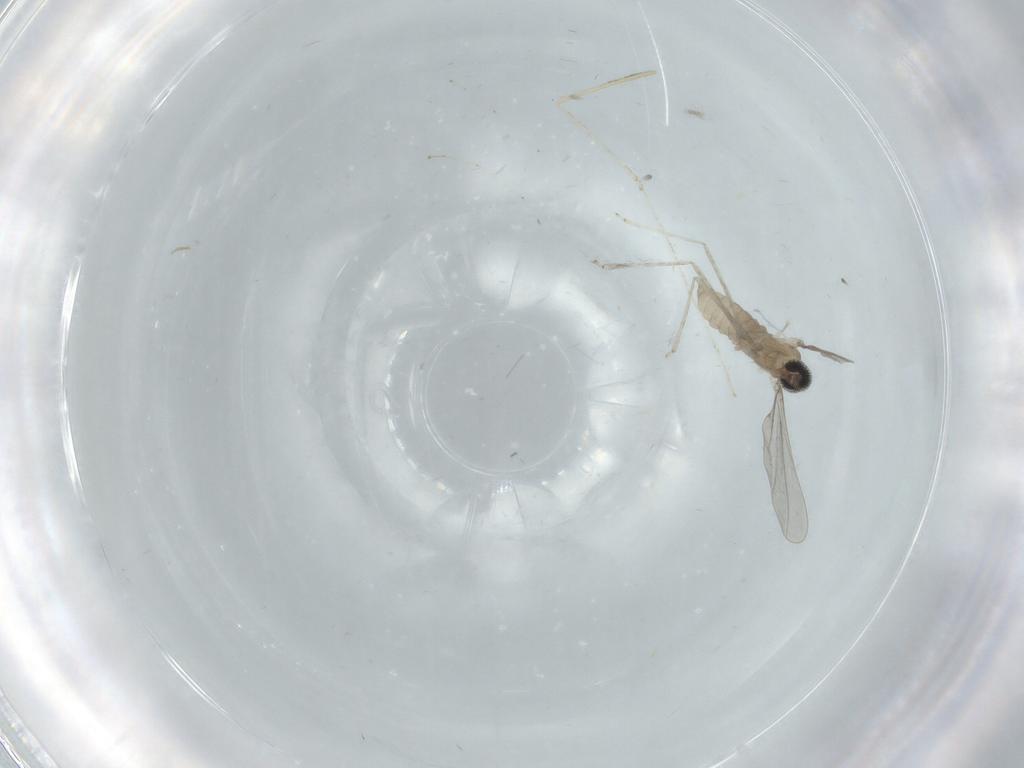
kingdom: Animalia
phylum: Arthropoda
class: Insecta
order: Diptera
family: Cecidomyiidae
